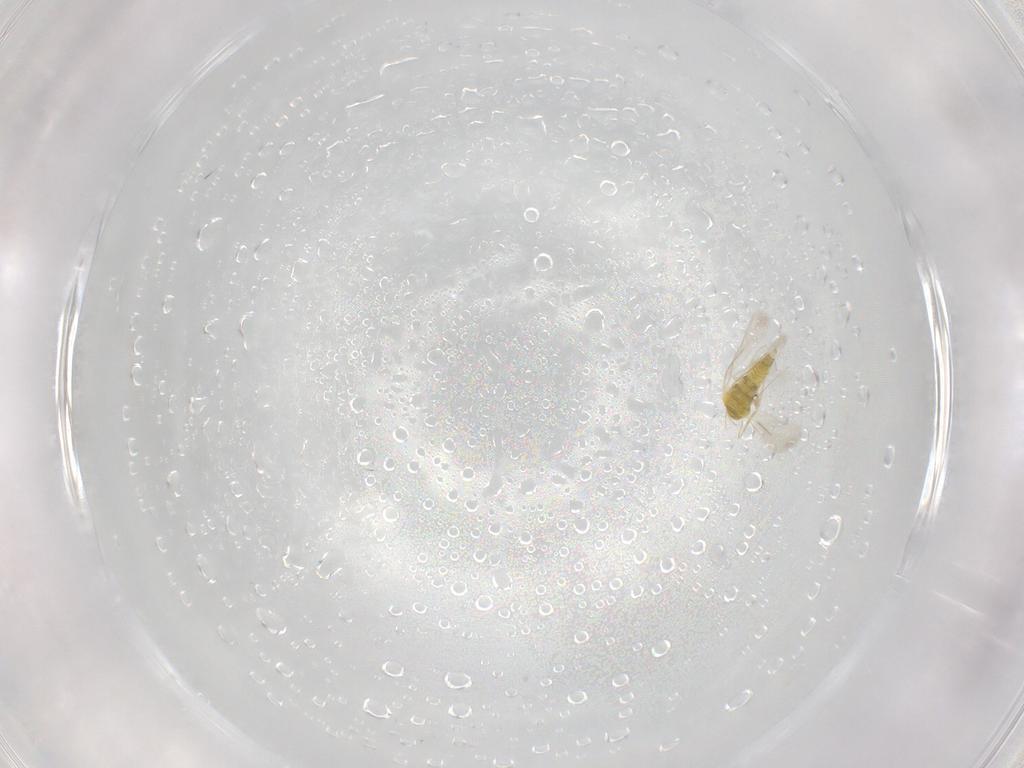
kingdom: Animalia
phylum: Arthropoda
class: Insecta
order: Hemiptera
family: Aleyrodidae
